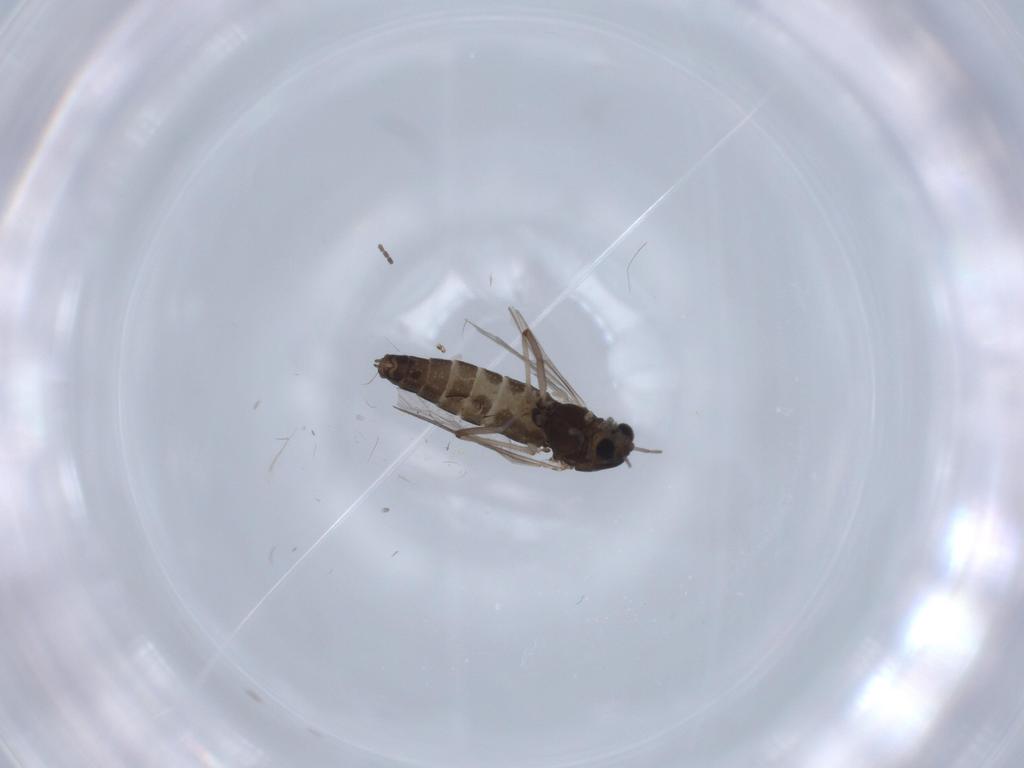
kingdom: Animalia
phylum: Arthropoda
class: Insecta
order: Diptera
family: Chironomidae
